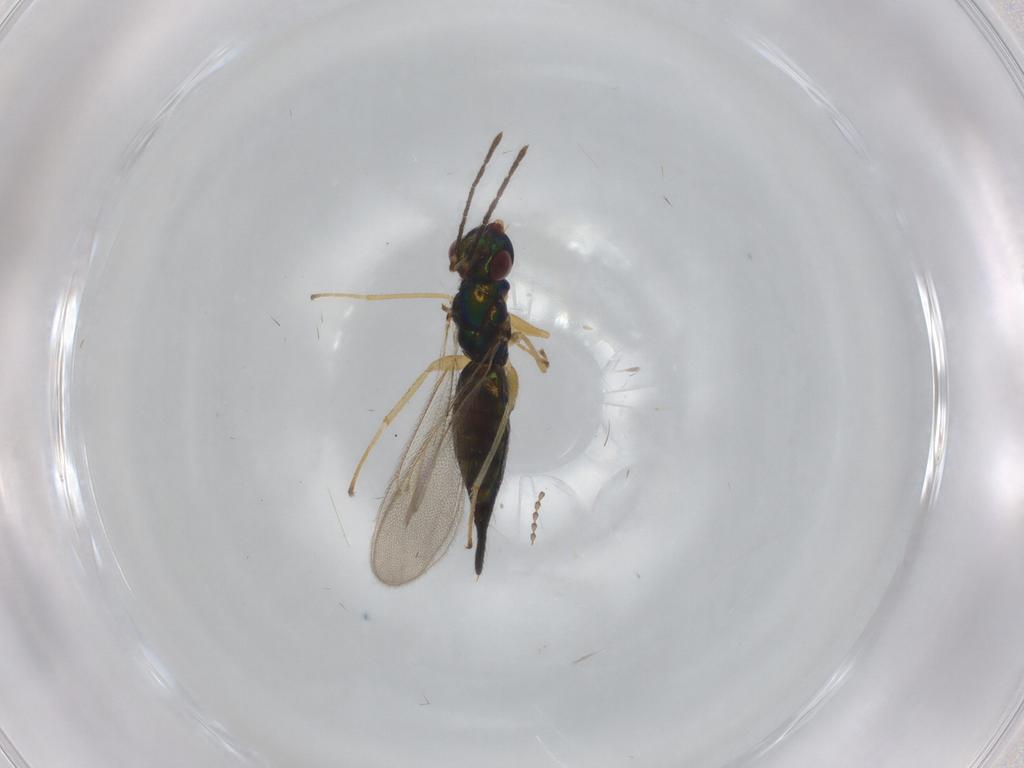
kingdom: Animalia
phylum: Arthropoda
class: Insecta
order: Hymenoptera
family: Eulophidae
